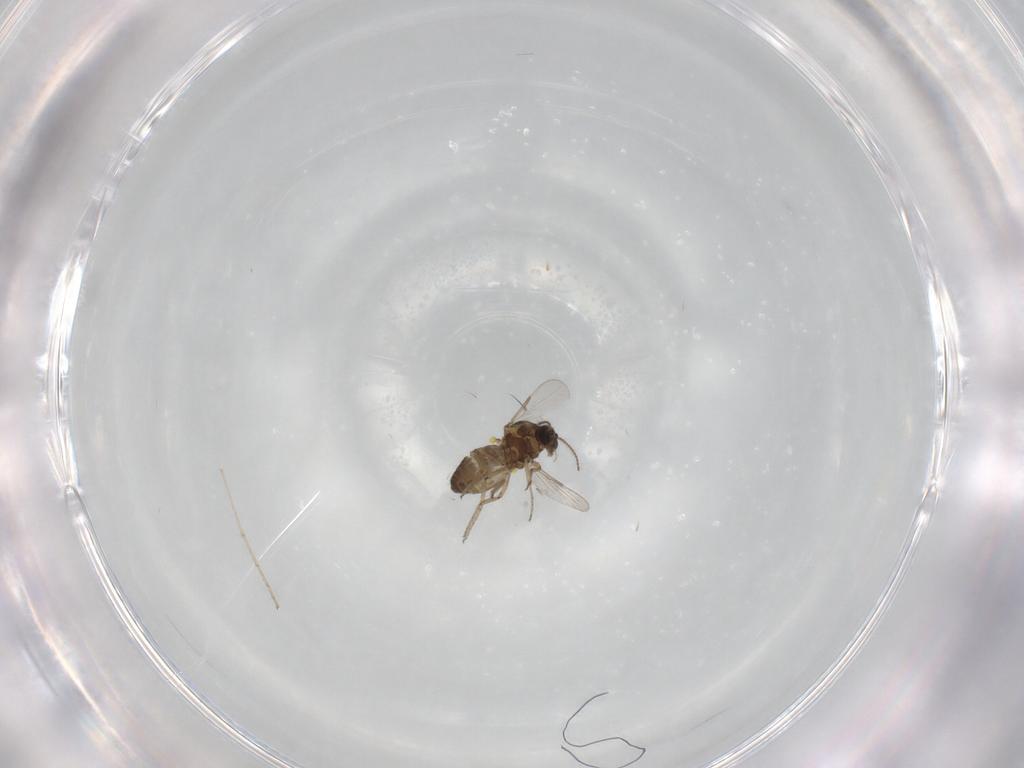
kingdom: Animalia
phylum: Arthropoda
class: Insecta
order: Diptera
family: Ceratopogonidae
